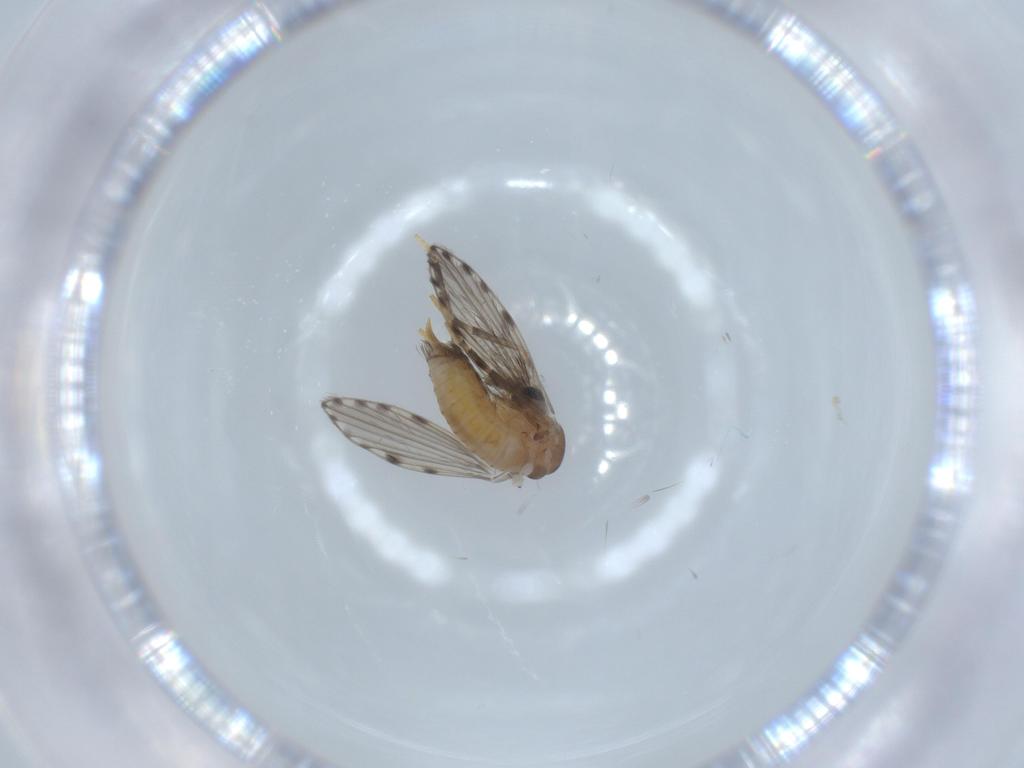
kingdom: Animalia
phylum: Arthropoda
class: Insecta
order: Diptera
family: Psychodidae
